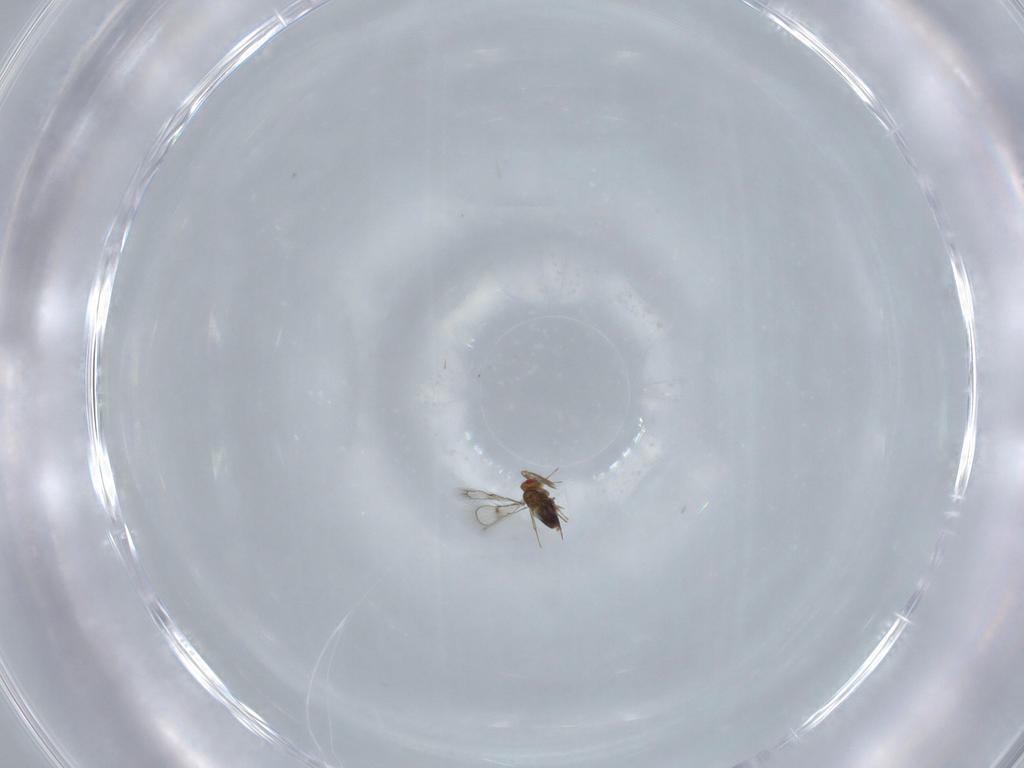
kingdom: Animalia
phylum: Arthropoda
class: Insecta
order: Hymenoptera
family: Trichogrammatidae
